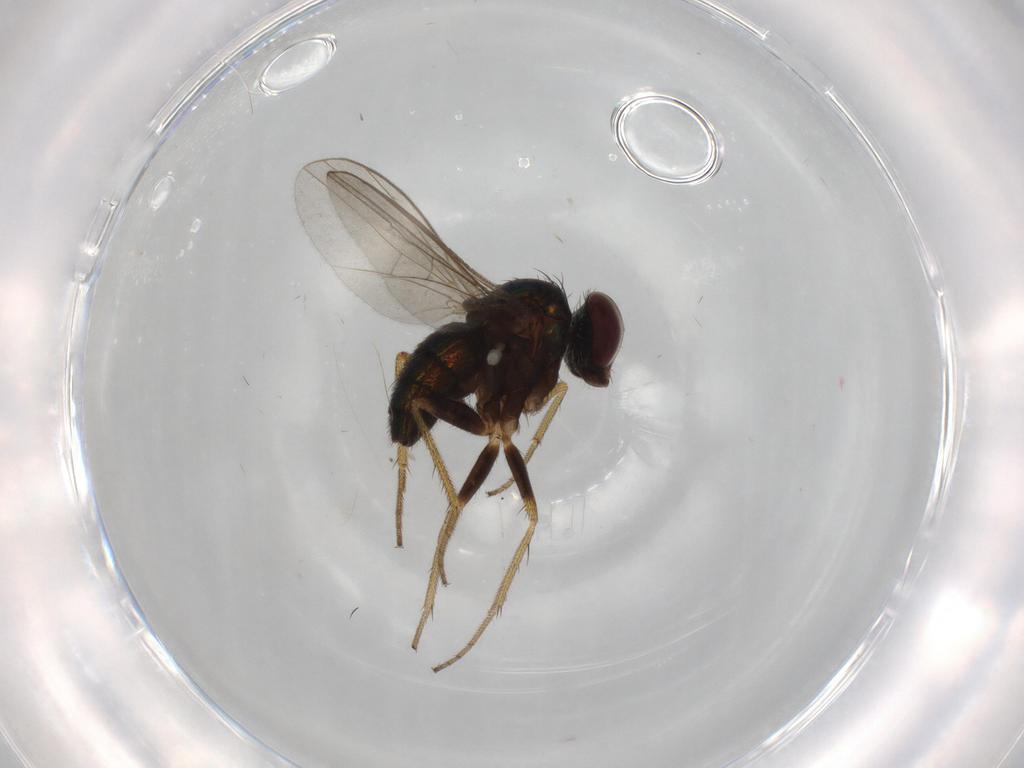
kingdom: Animalia
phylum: Arthropoda
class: Insecta
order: Diptera
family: Dolichopodidae
